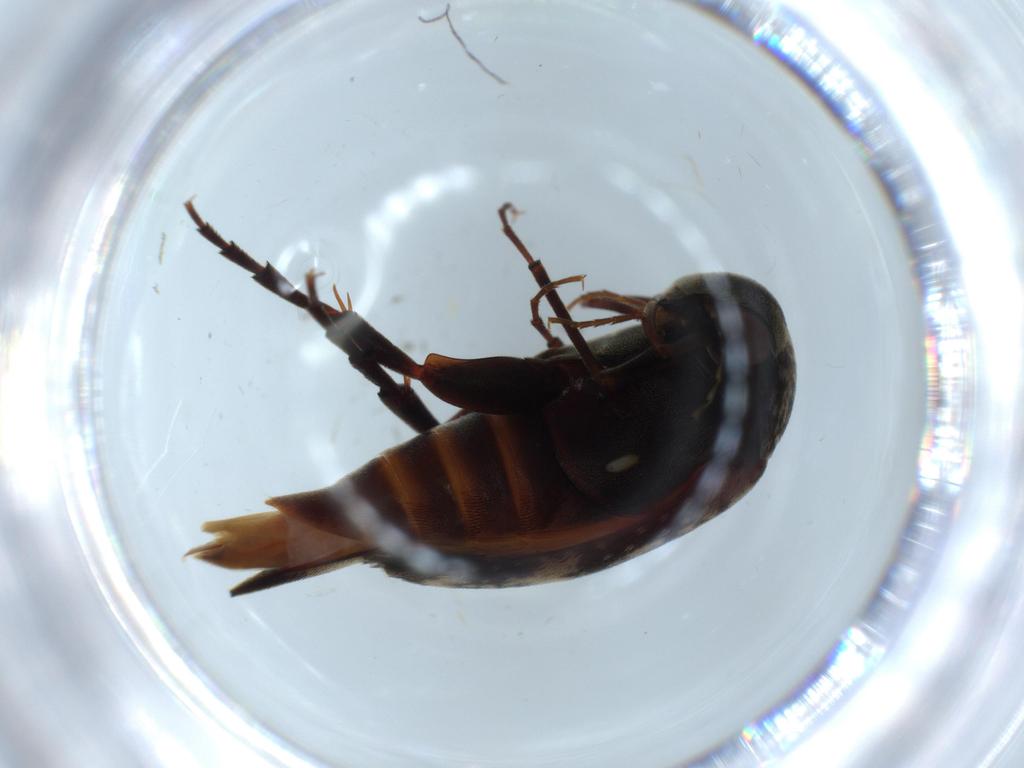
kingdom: Animalia
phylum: Arthropoda
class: Insecta
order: Coleoptera
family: Mordellidae
